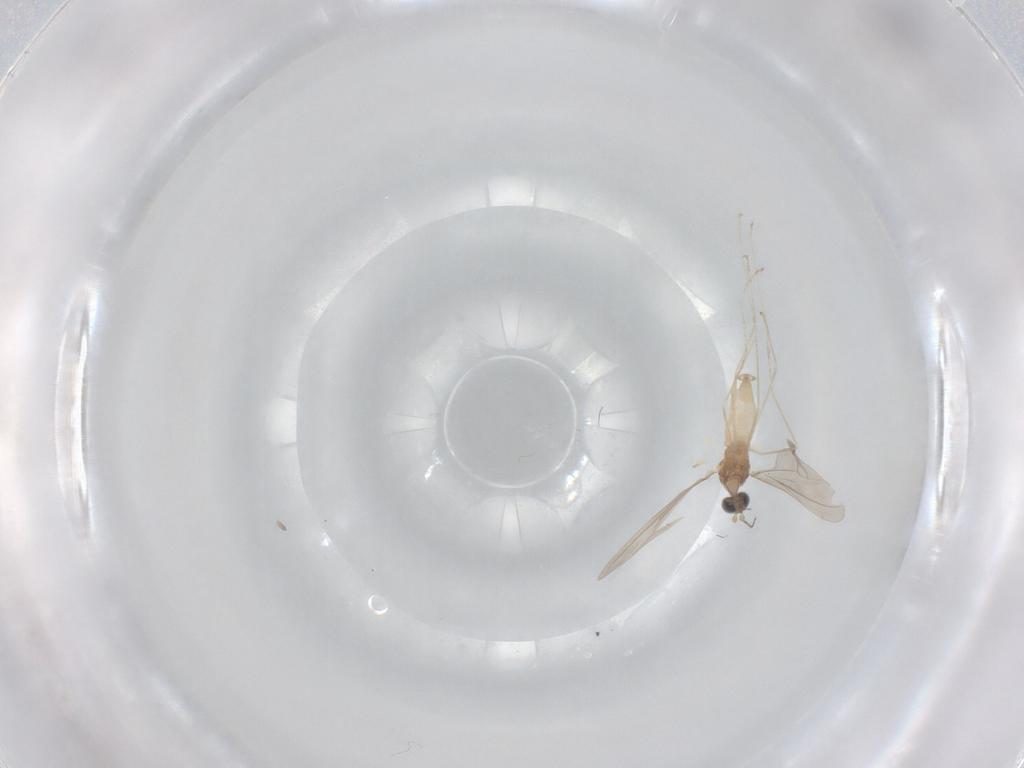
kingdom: Animalia
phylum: Arthropoda
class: Insecta
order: Diptera
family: Cecidomyiidae
